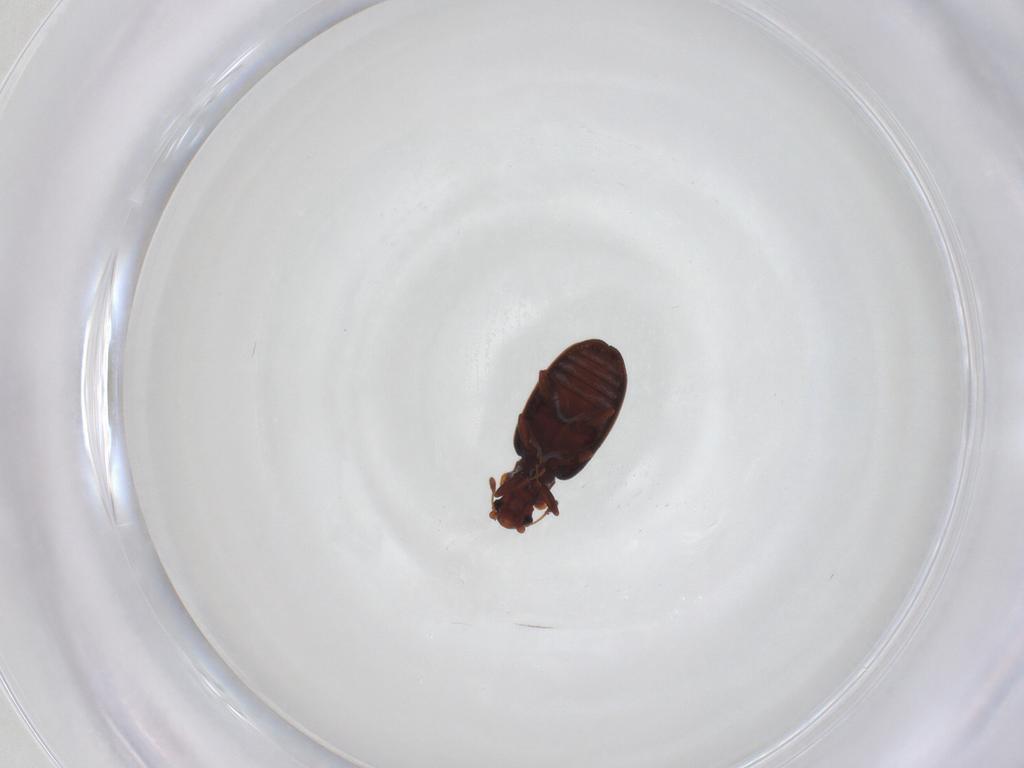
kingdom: Animalia
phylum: Arthropoda
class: Insecta
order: Coleoptera
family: Latridiidae
